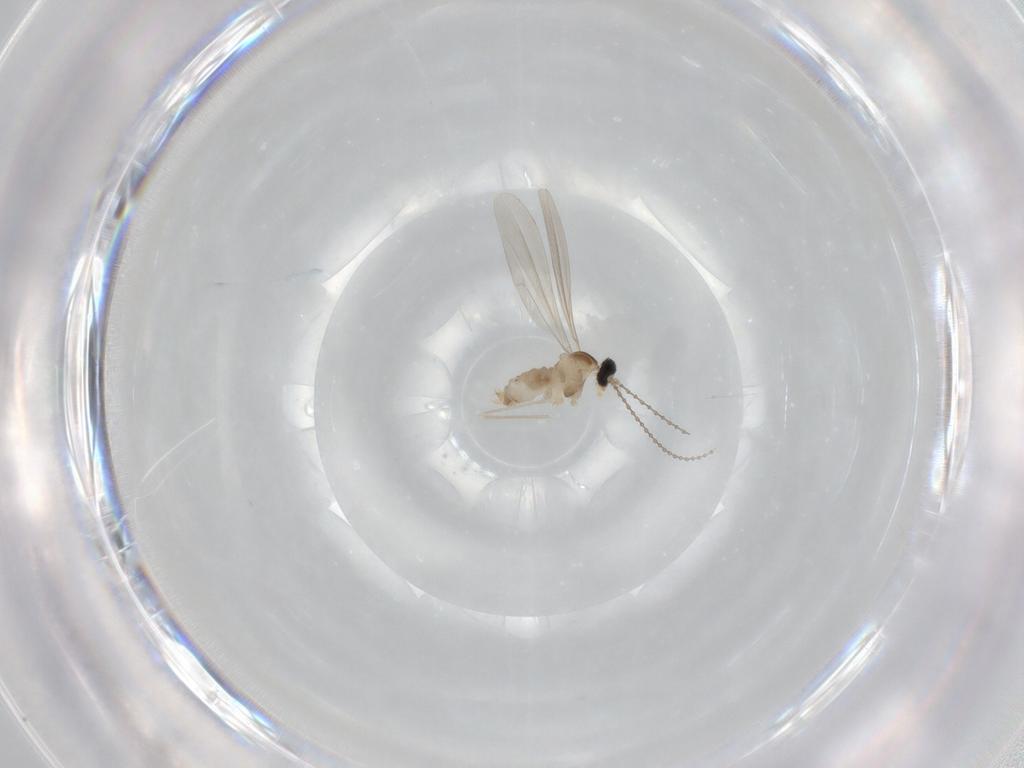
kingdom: Animalia
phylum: Arthropoda
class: Insecta
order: Diptera
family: Cecidomyiidae
